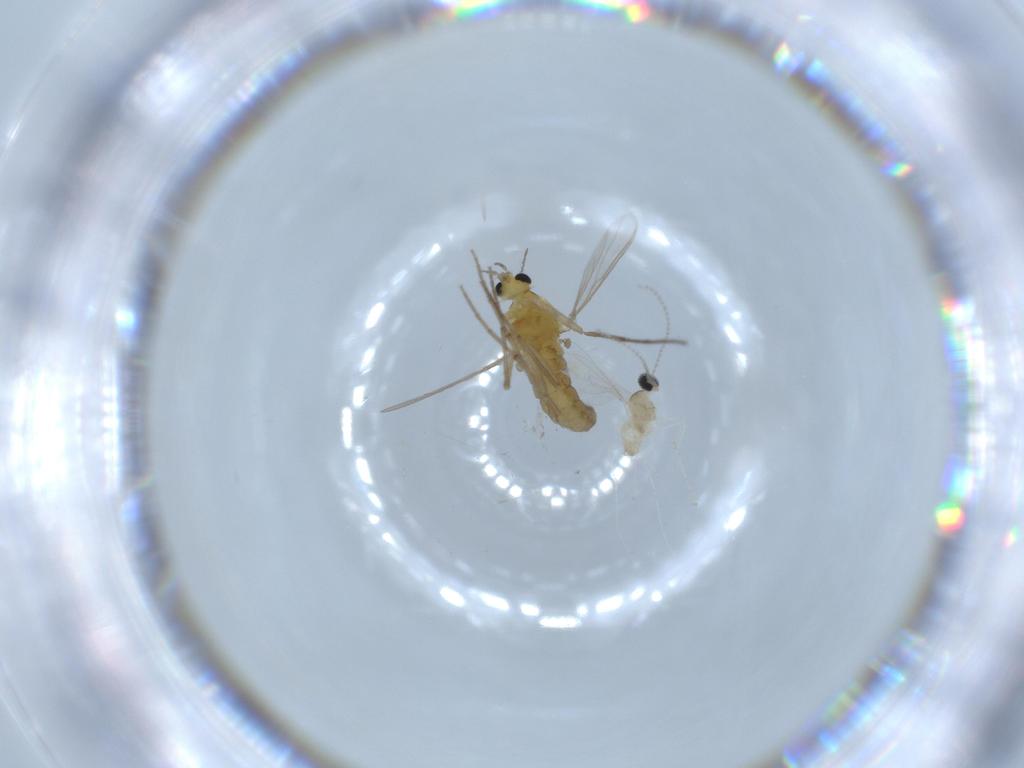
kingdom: Animalia
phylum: Arthropoda
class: Insecta
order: Diptera
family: Chironomidae
